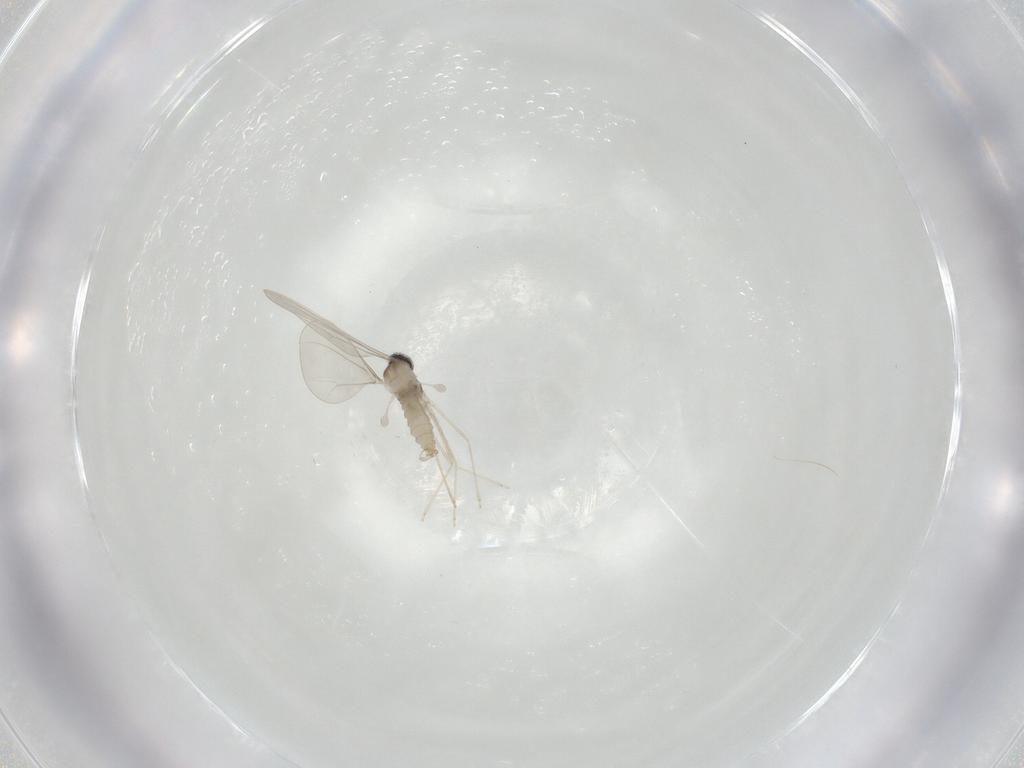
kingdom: Animalia
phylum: Arthropoda
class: Insecta
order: Diptera
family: Cecidomyiidae
